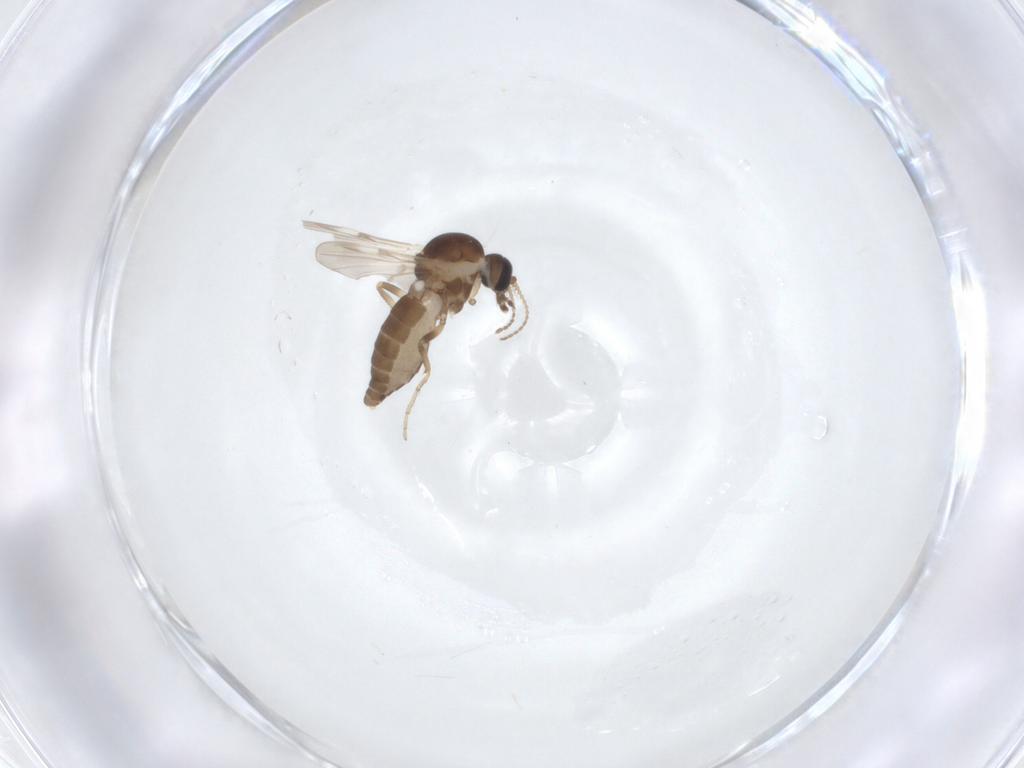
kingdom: Animalia
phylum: Arthropoda
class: Insecta
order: Diptera
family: Ceratopogonidae
